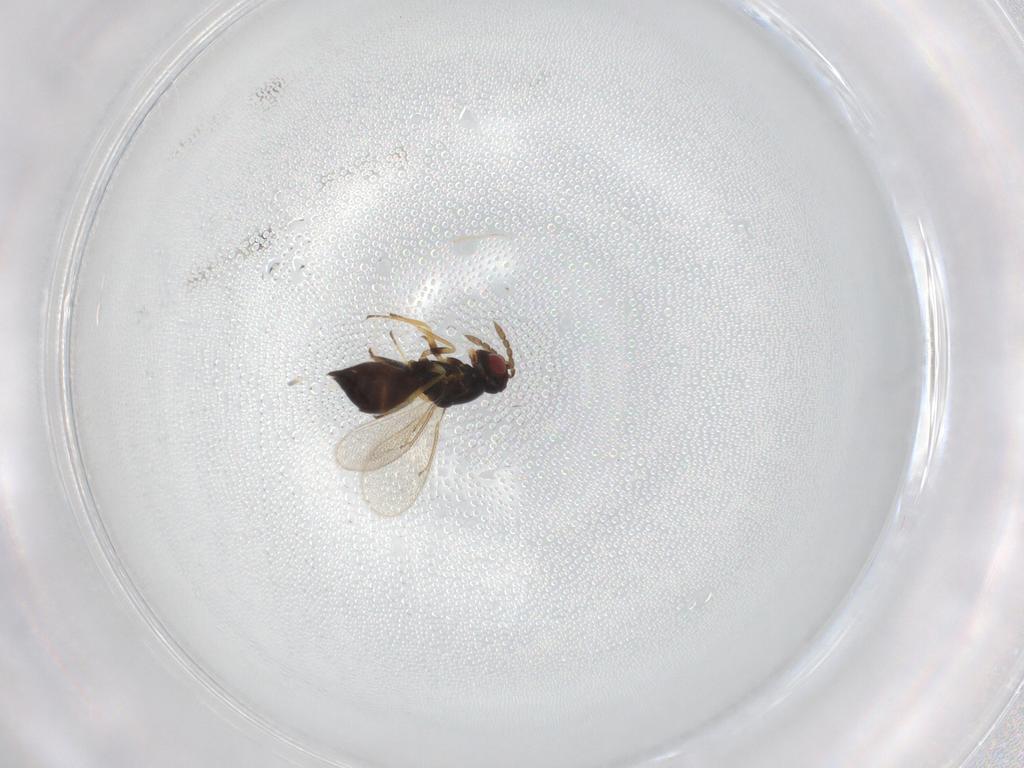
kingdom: Animalia
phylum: Arthropoda
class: Insecta
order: Hymenoptera
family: Eulophidae
